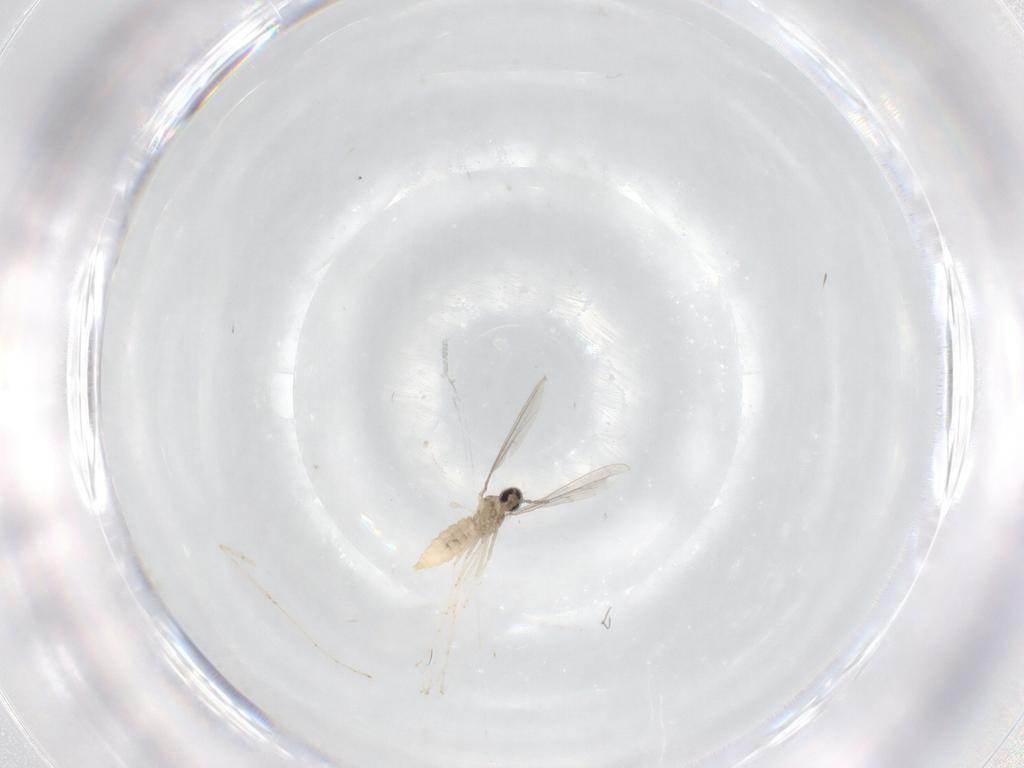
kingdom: Animalia
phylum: Arthropoda
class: Insecta
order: Diptera
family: Cecidomyiidae
